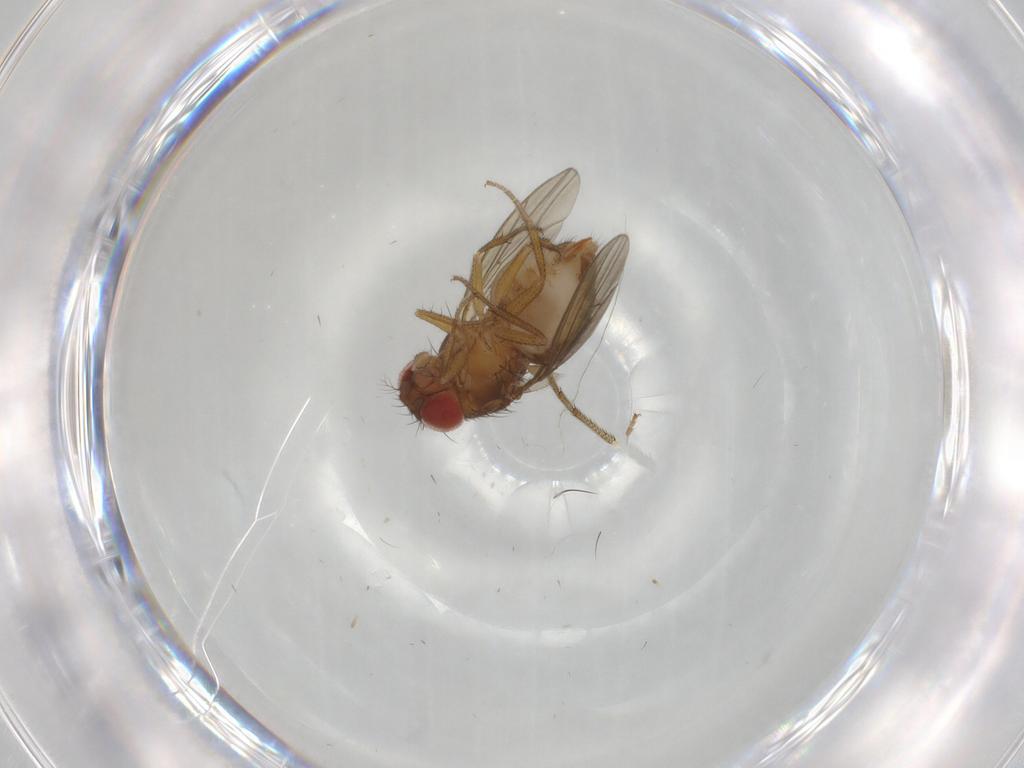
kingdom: Animalia
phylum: Arthropoda
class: Insecta
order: Diptera
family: Drosophilidae
